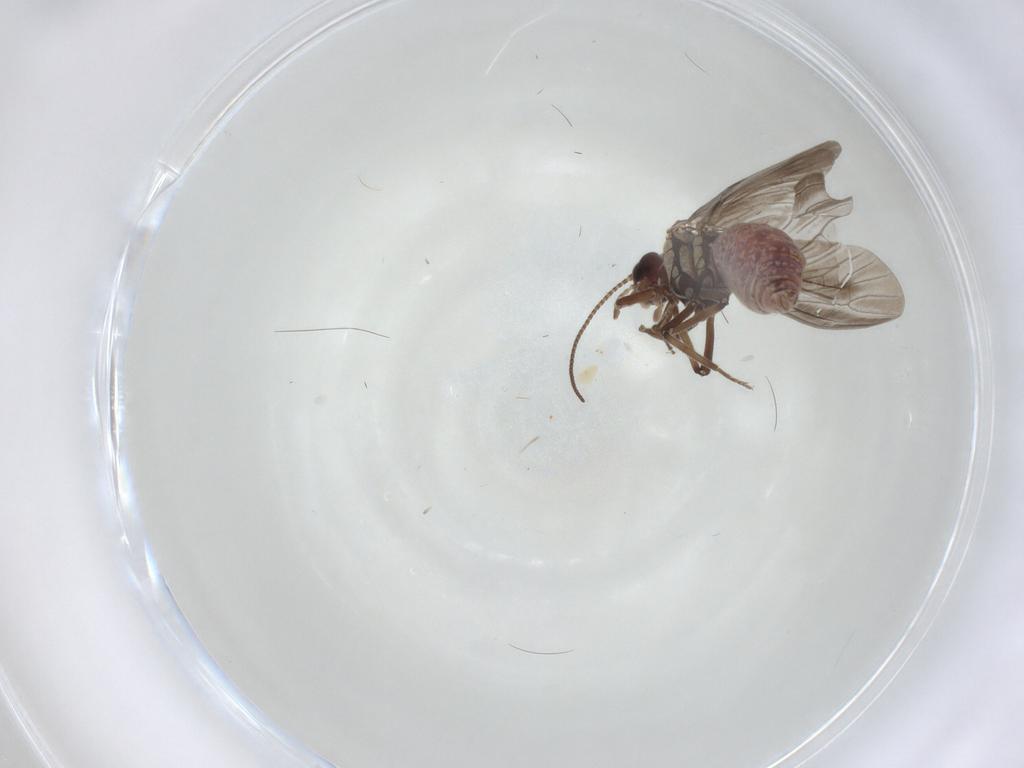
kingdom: Animalia
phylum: Arthropoda
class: Insecta
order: Neuroptera
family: Coniopterygidae
